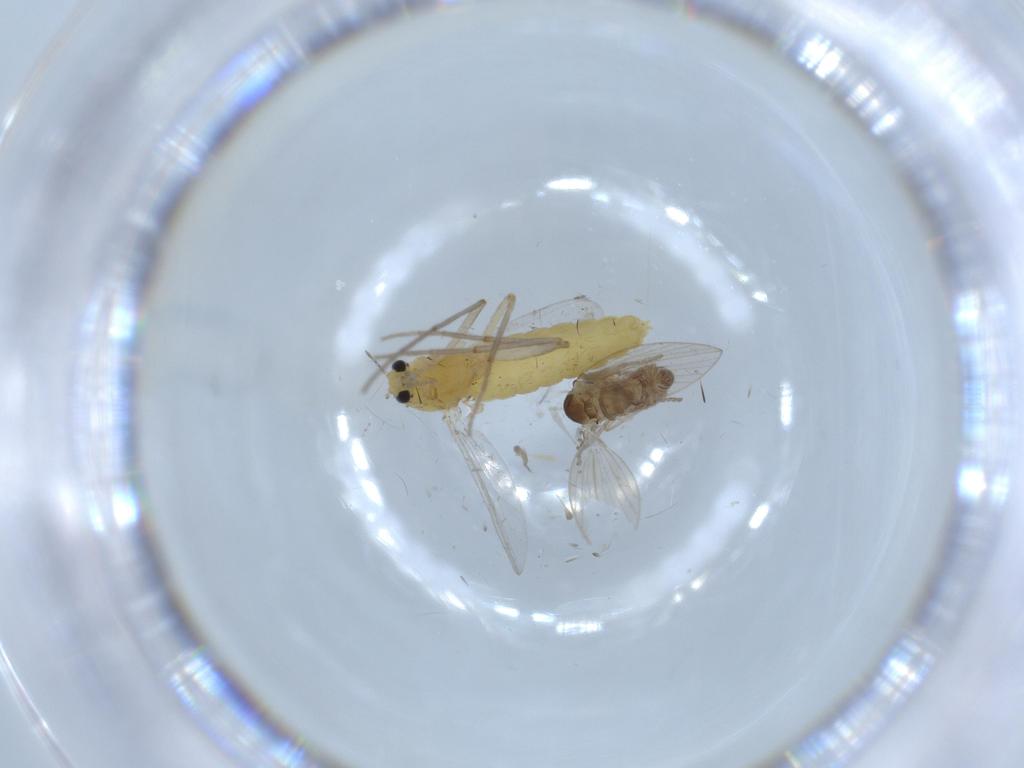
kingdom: Animalia
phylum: Arthropoda
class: Insecta
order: Diptera
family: Chironomidae
